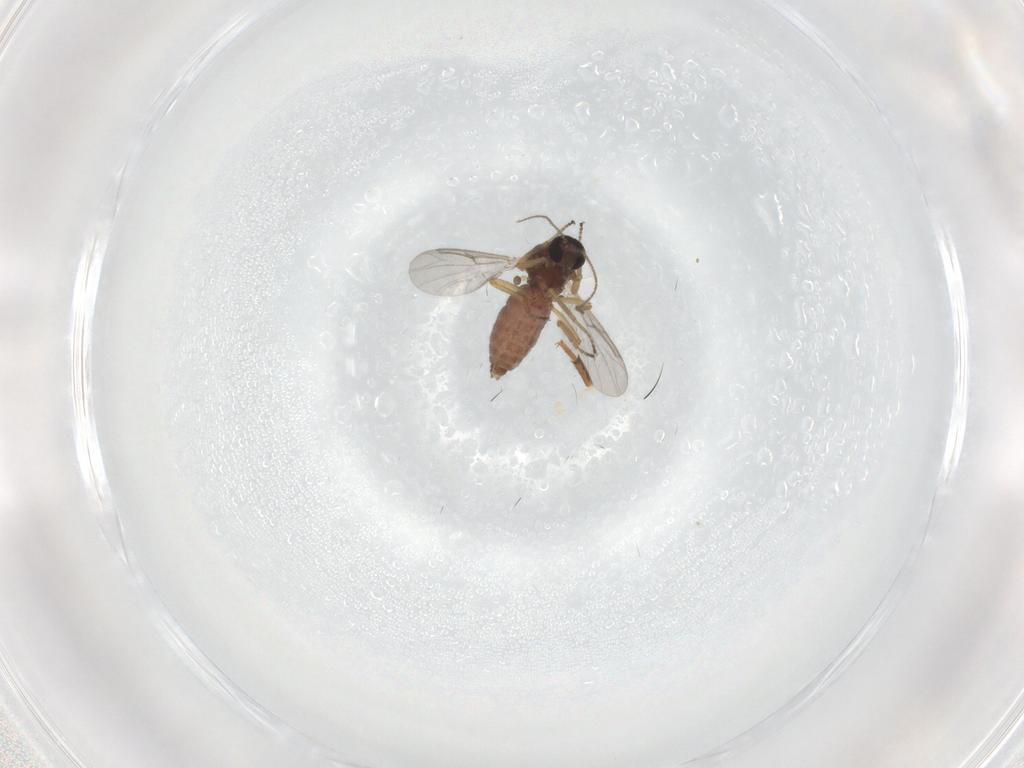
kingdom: Animalia
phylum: Arthropoda
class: Insecta
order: Diptera
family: Ceratopogonidae
